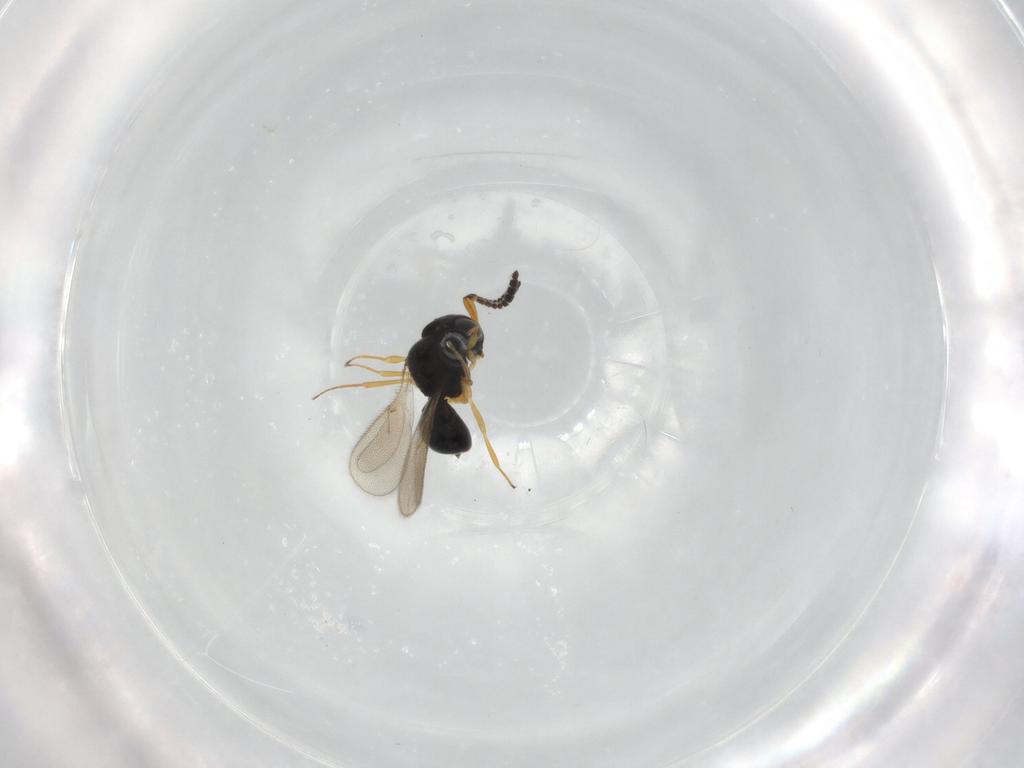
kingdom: Animalia
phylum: Arthropoda
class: Insecta
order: Hymenoptera
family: Scelionidae
